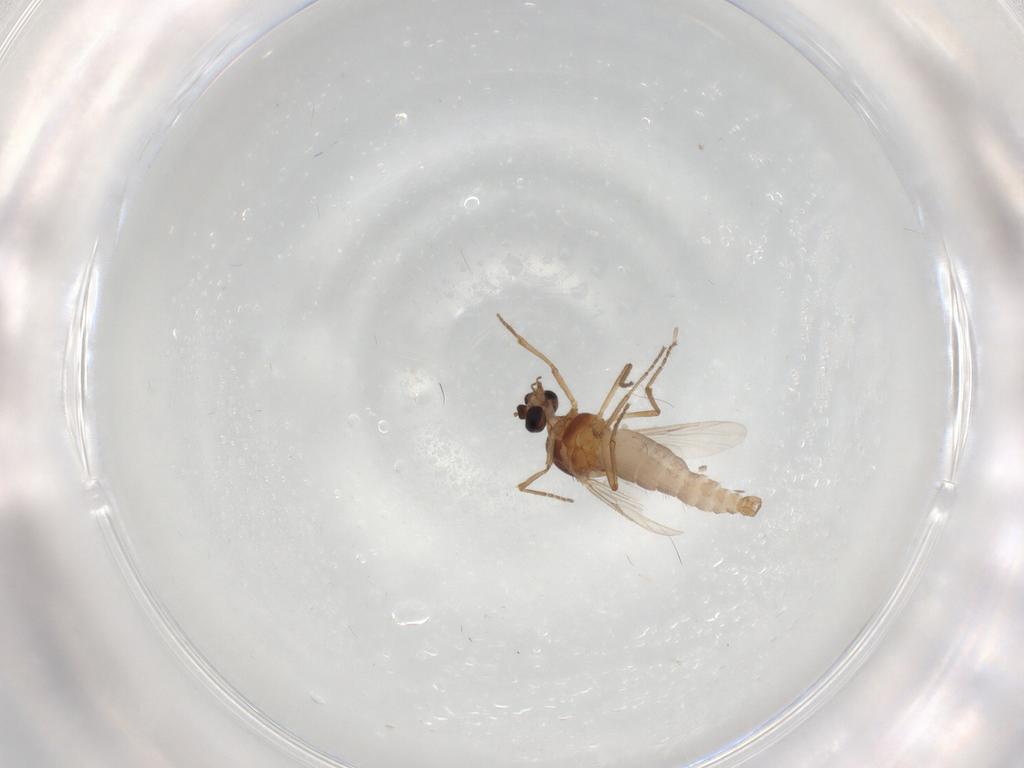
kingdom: Animalia
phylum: Arthropoda
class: Insecta
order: Diptera
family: Ceratopogonidae
